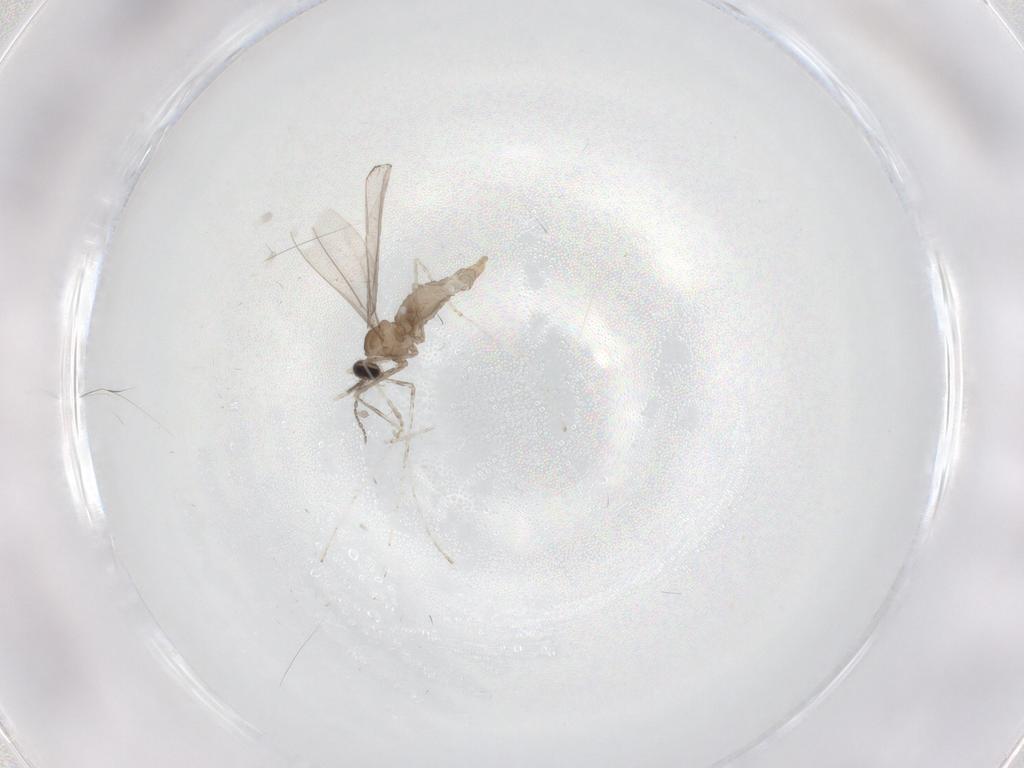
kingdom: Animalia
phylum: Arthropoda
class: Insecta
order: Diptera
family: Cecidomyiidae
